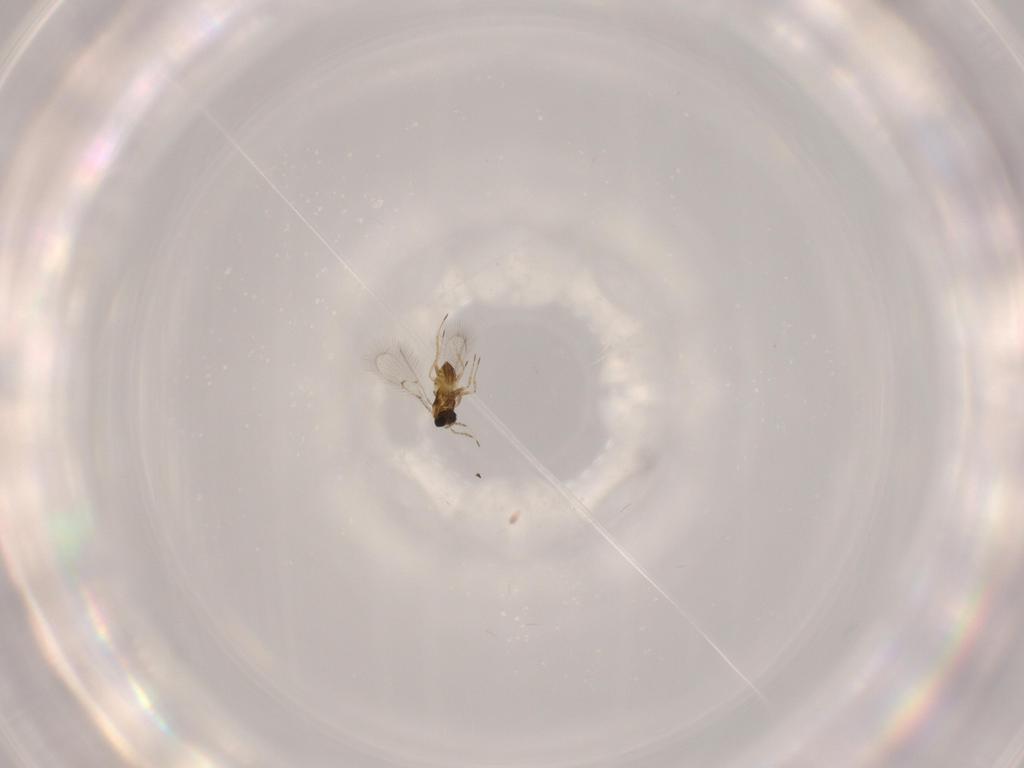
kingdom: Animalia
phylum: Arthropoda
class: Insecta
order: Hymenoptera
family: Trichogrammatidae
